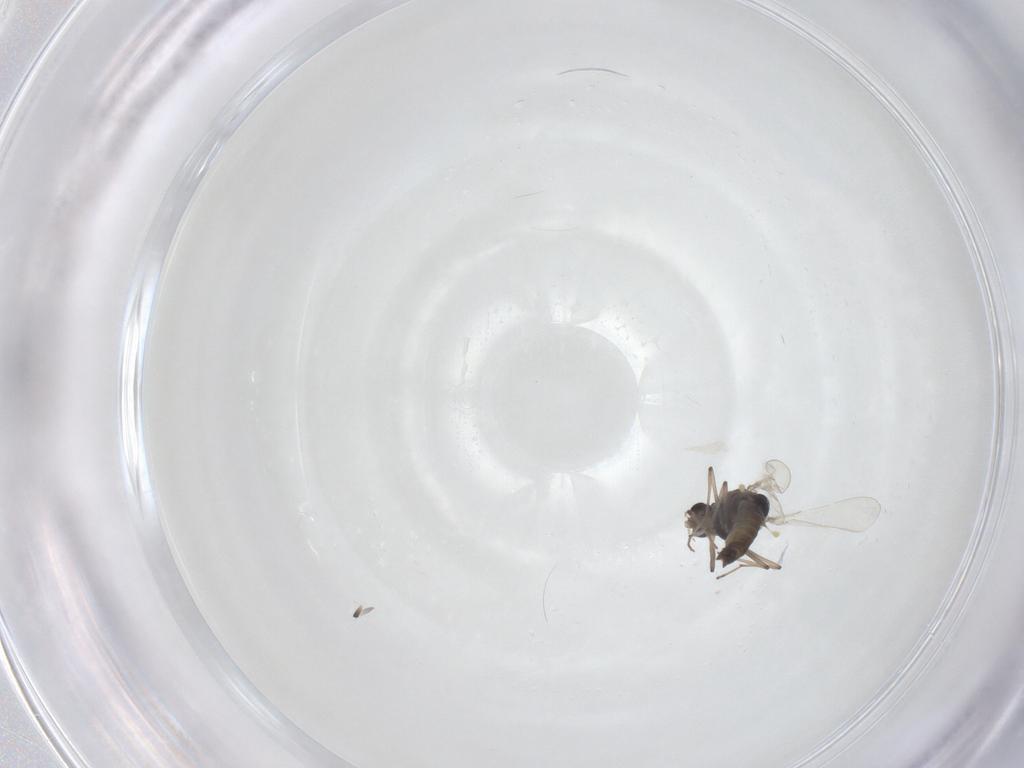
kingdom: Animalia
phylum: Arthropoda
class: Insecta
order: Diptera
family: Chironomidae
